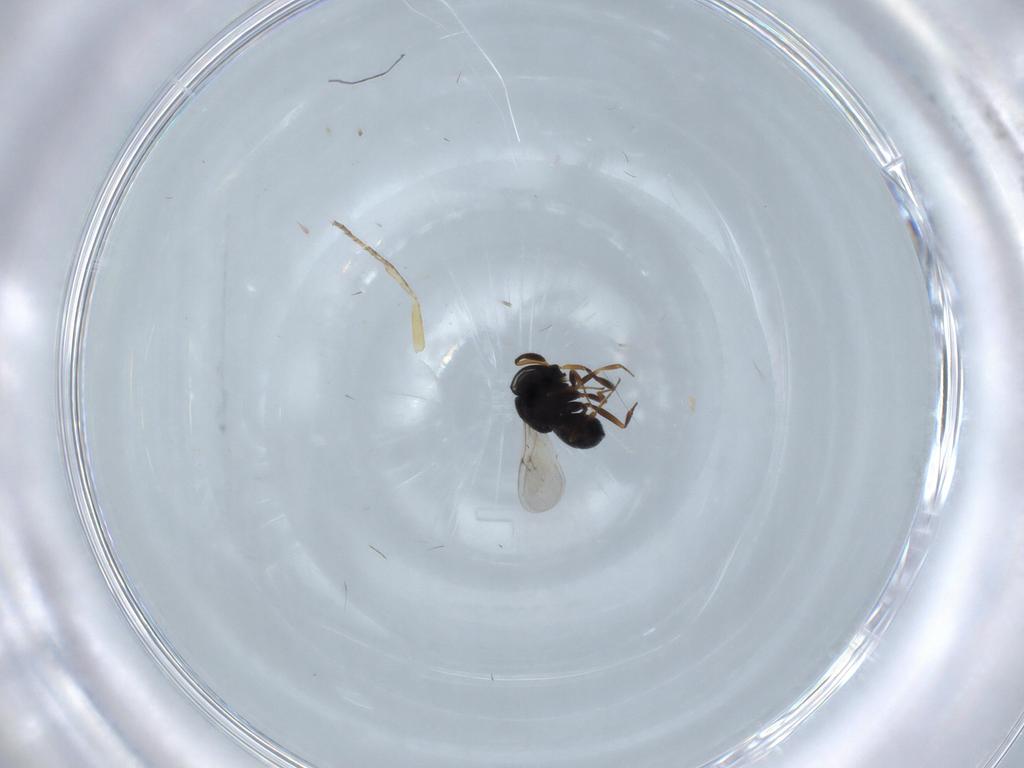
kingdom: Animalia
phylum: Arthropoda
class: Insecta
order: Hymenoptera
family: Scelionidae
